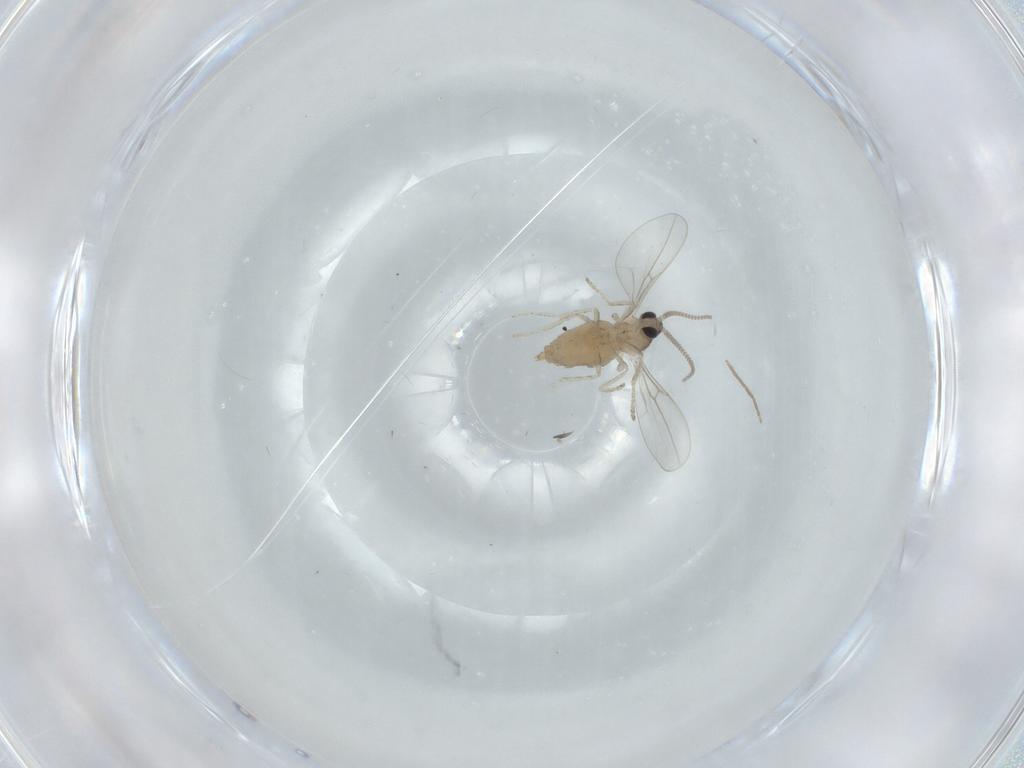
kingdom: Animalia
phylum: Arthropoda
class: Insecta
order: Diptera
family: Cecidomyiidae
